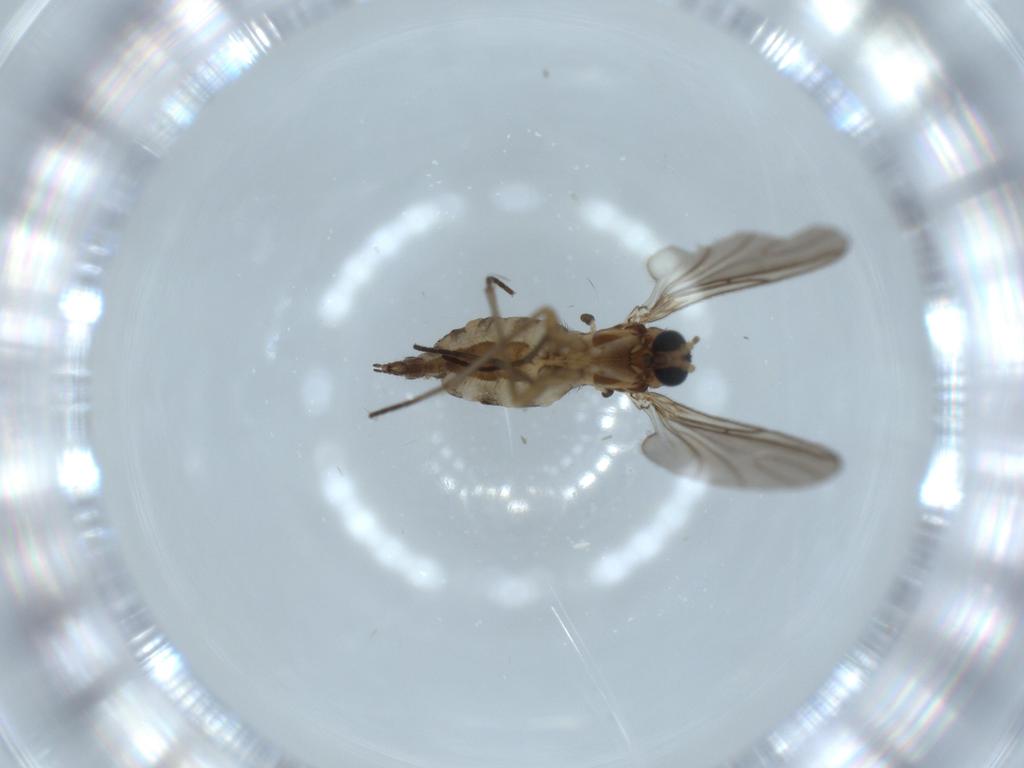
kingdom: Animalia
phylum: Arthropoda
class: Insecta
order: Diptera
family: Sciaridae
